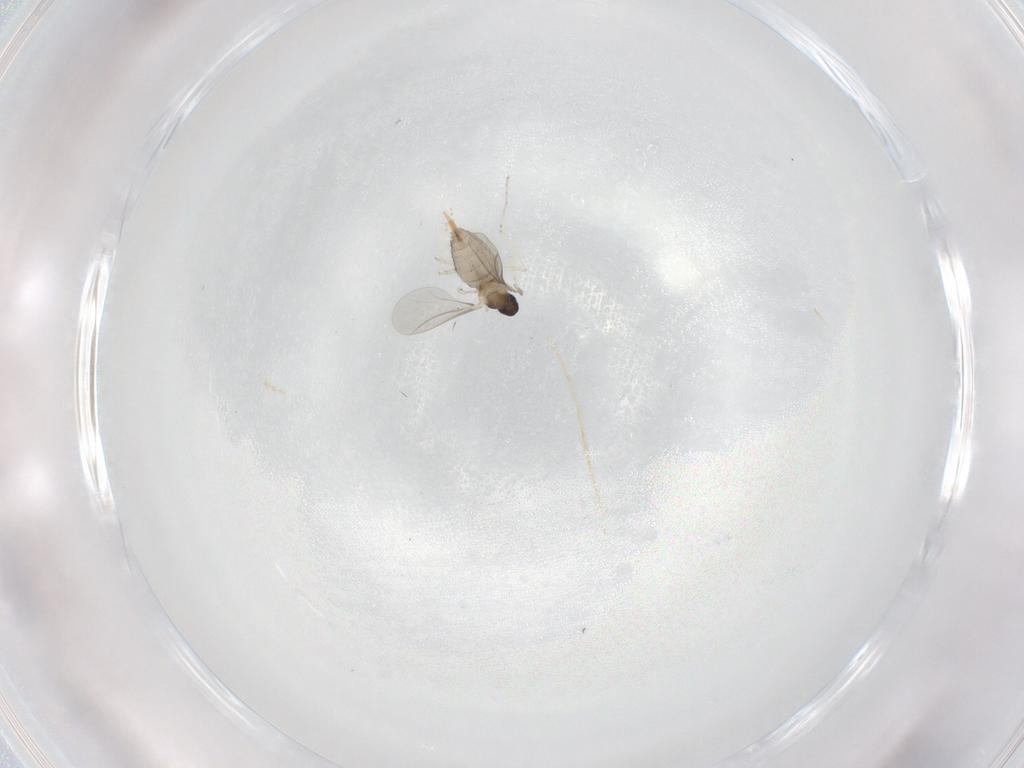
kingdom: Animalia
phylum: Arthropoda
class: Insecta
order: Diptera
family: Cecidomyiidae
